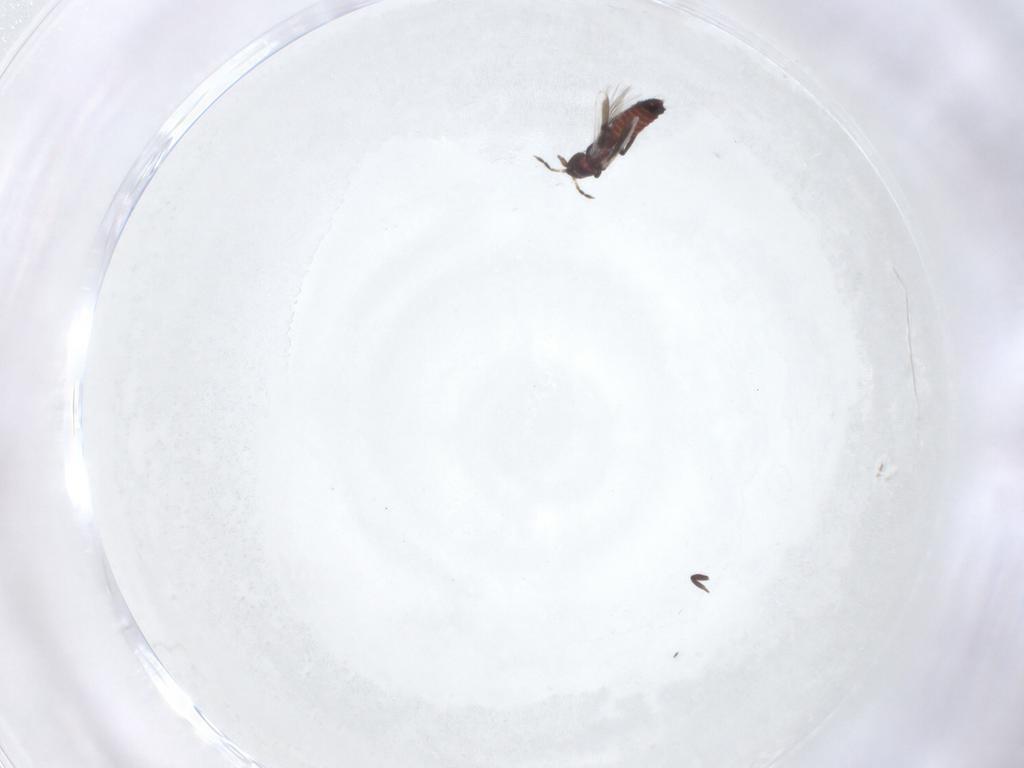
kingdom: Animalia
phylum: Arthropoda
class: Insecta
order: Thysanoptera
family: Aeolothripidae
